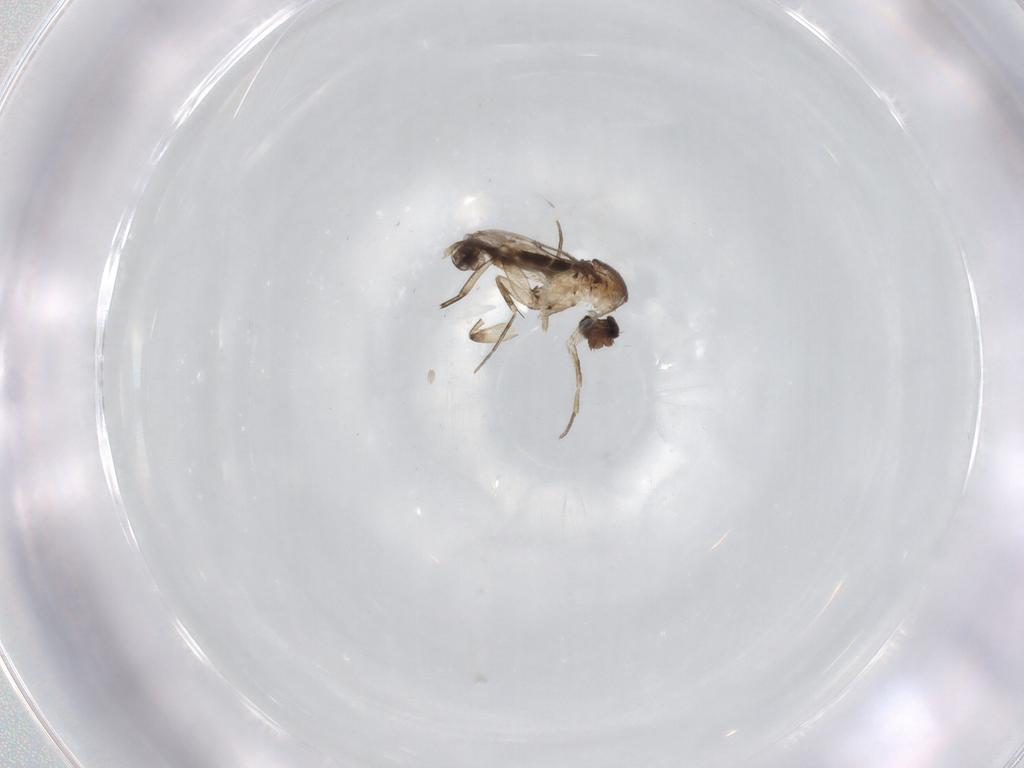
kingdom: Animalia
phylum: Arthropoda
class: Insecta
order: Diptera
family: Phoridae
